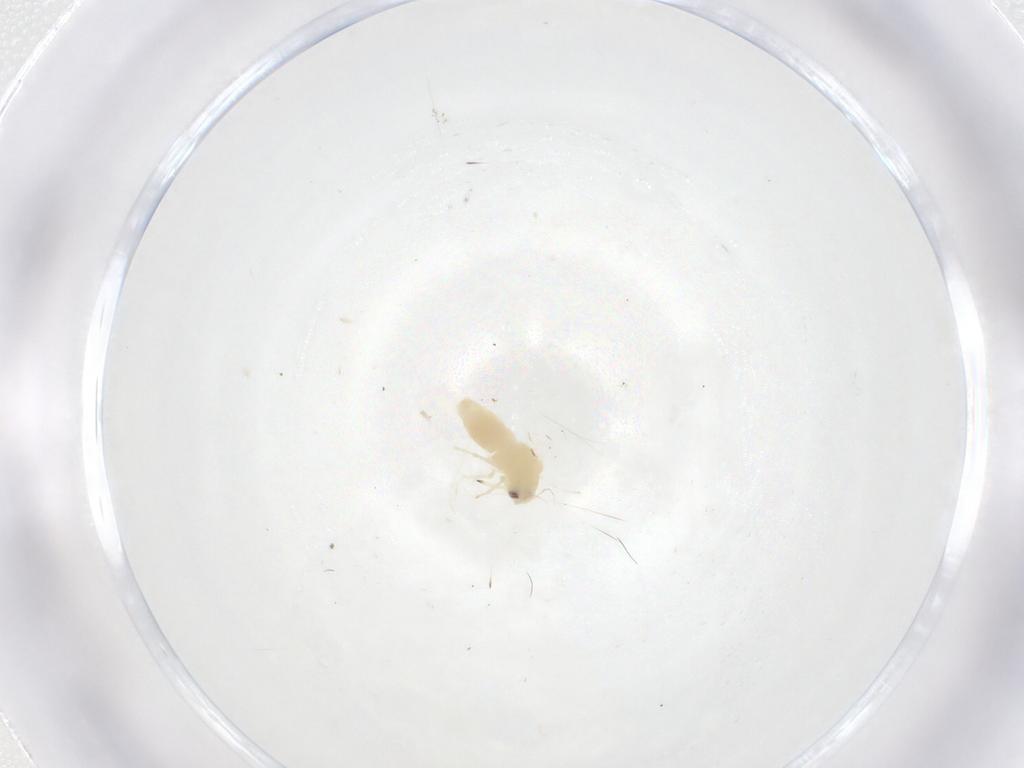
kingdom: Animalia
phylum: Arthropoda
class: Insecta
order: Hemiptera
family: Aleyrodidae
